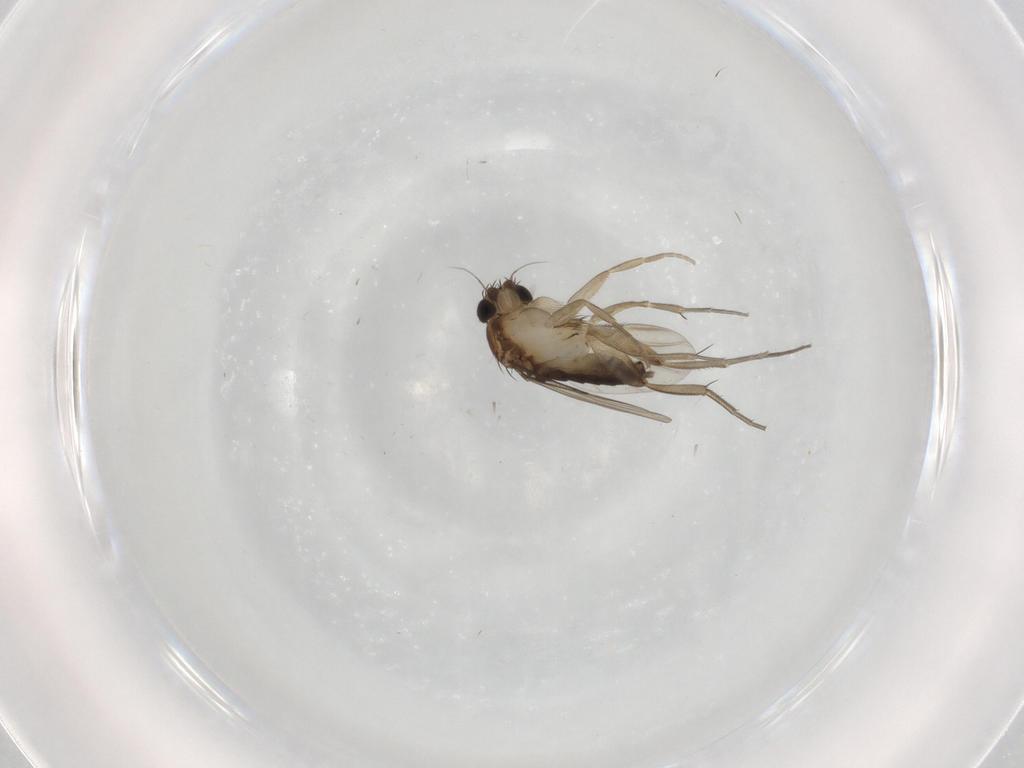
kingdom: Animalia
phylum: Arthropoda
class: Insecta
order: Diptera
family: Phoridae
